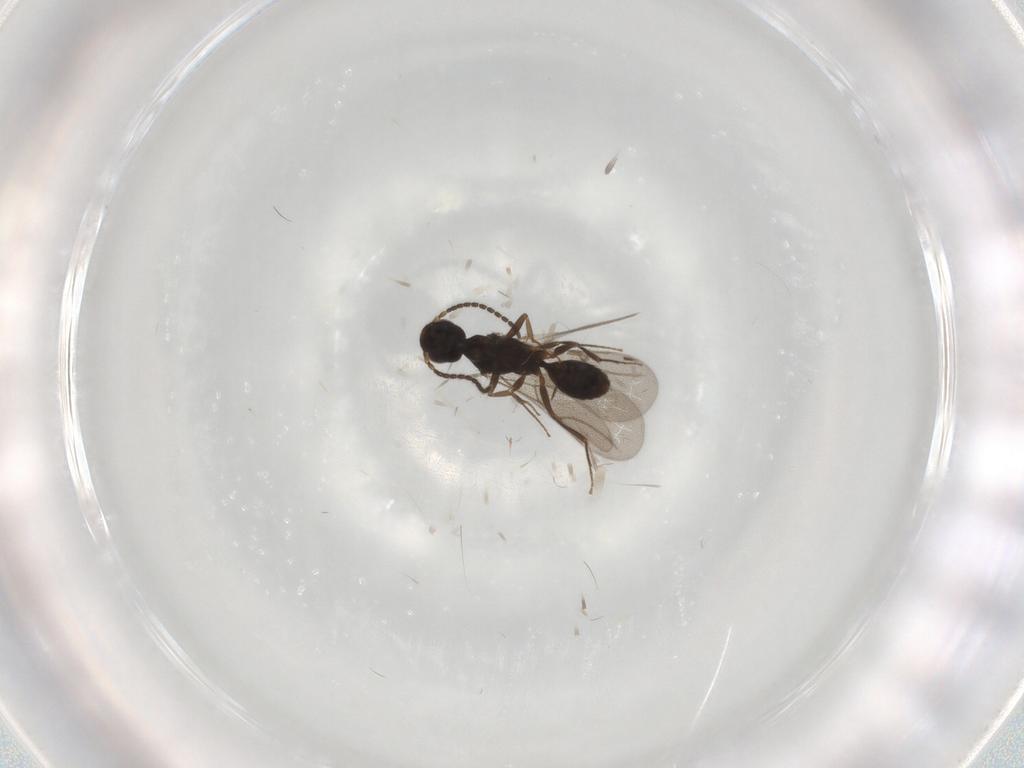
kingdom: Animalia
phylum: Arthropoda
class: Insecta
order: Hymenoptera
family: Bethylidae
